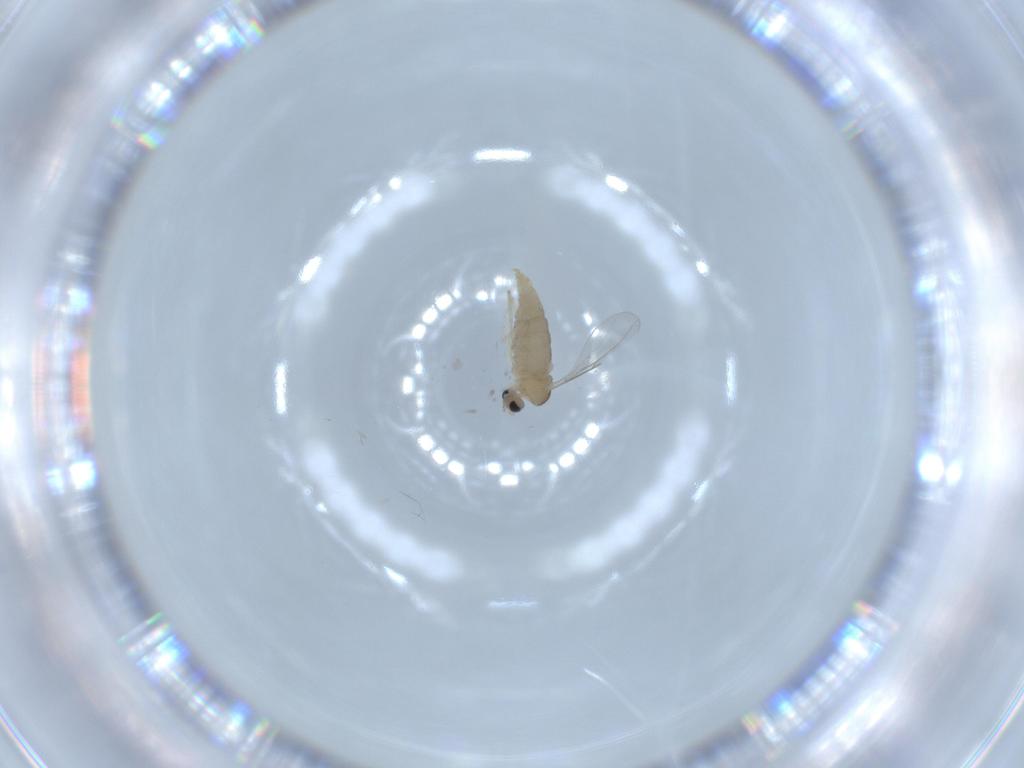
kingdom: Animalia
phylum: Arthropoda
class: Insecta
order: Diptera
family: Cecidomyiidae
